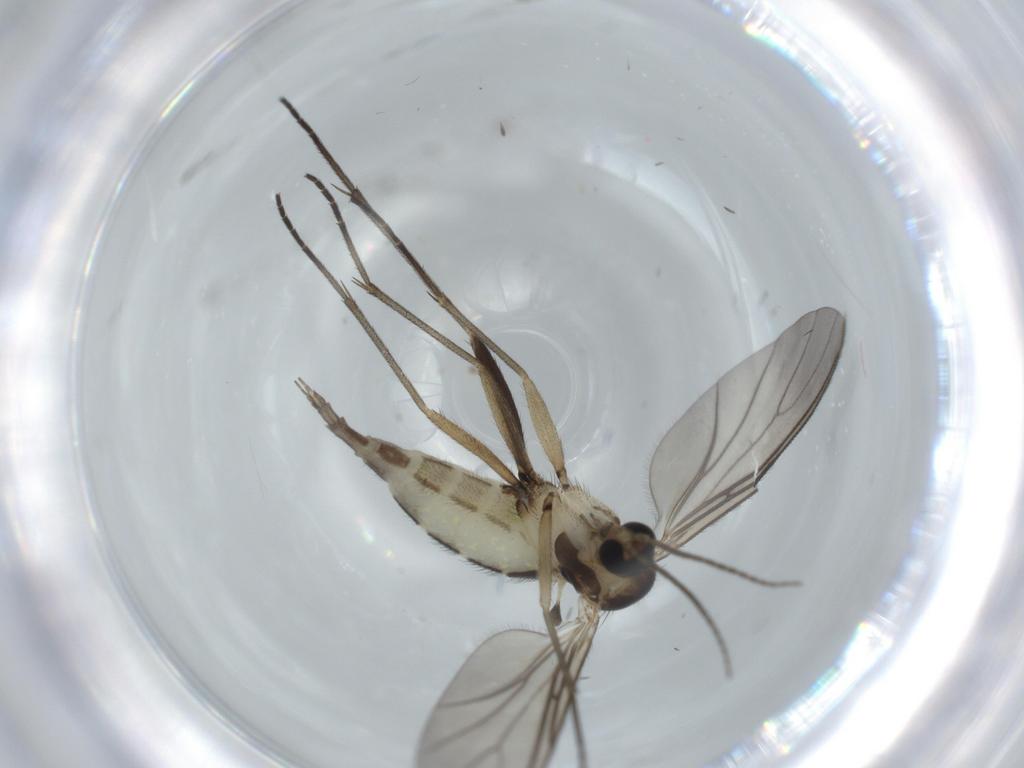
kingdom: Animalia
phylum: Arthropoda
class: Insecta
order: Diptera
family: Sciaridae
